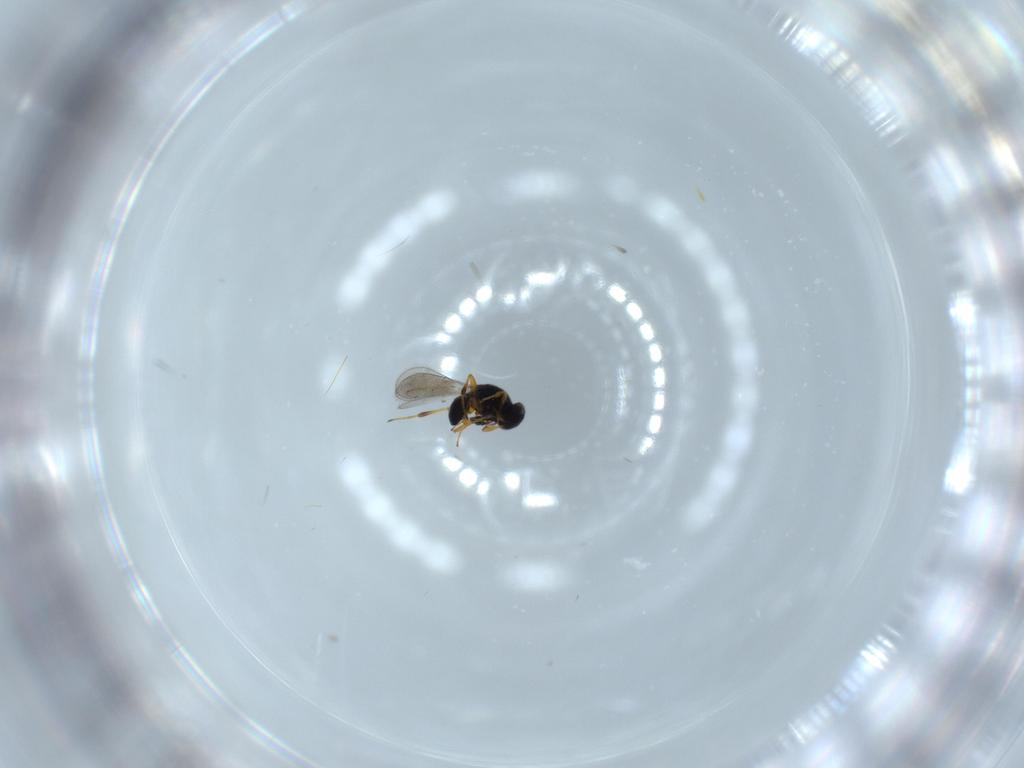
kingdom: Animalia
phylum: Arthropoda
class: Insecta
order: Hymenoptera
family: Platygastridae
